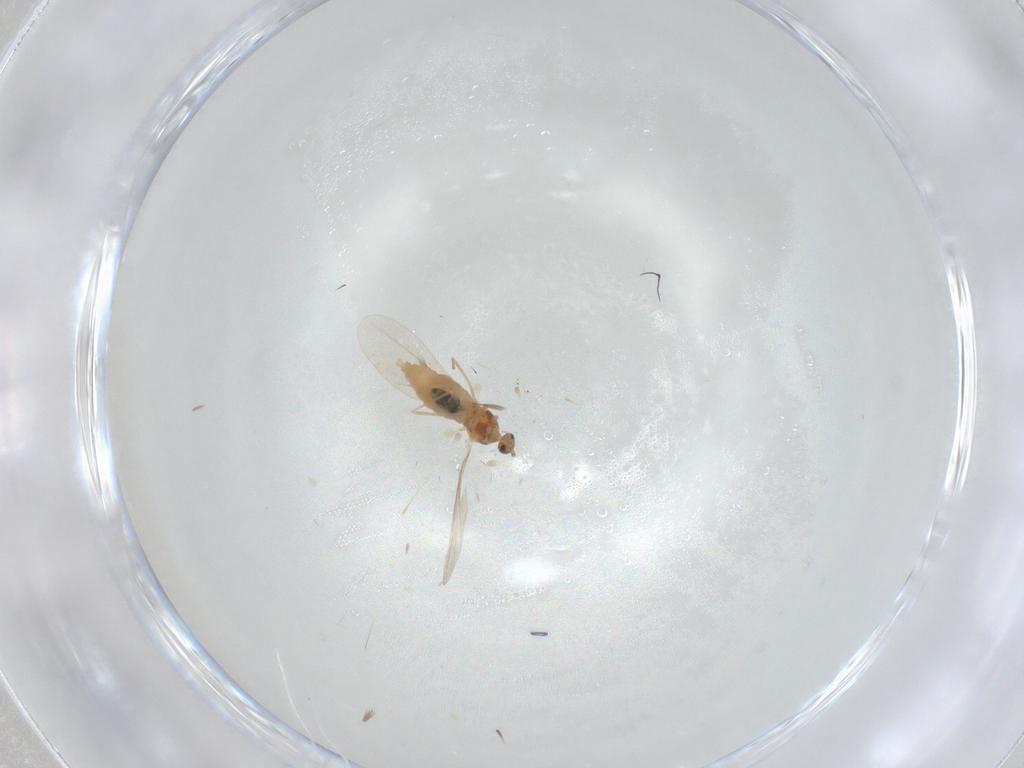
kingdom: Animalia
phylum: Arthropoda
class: Insecta
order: Diptera
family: Cecidomyiidae
